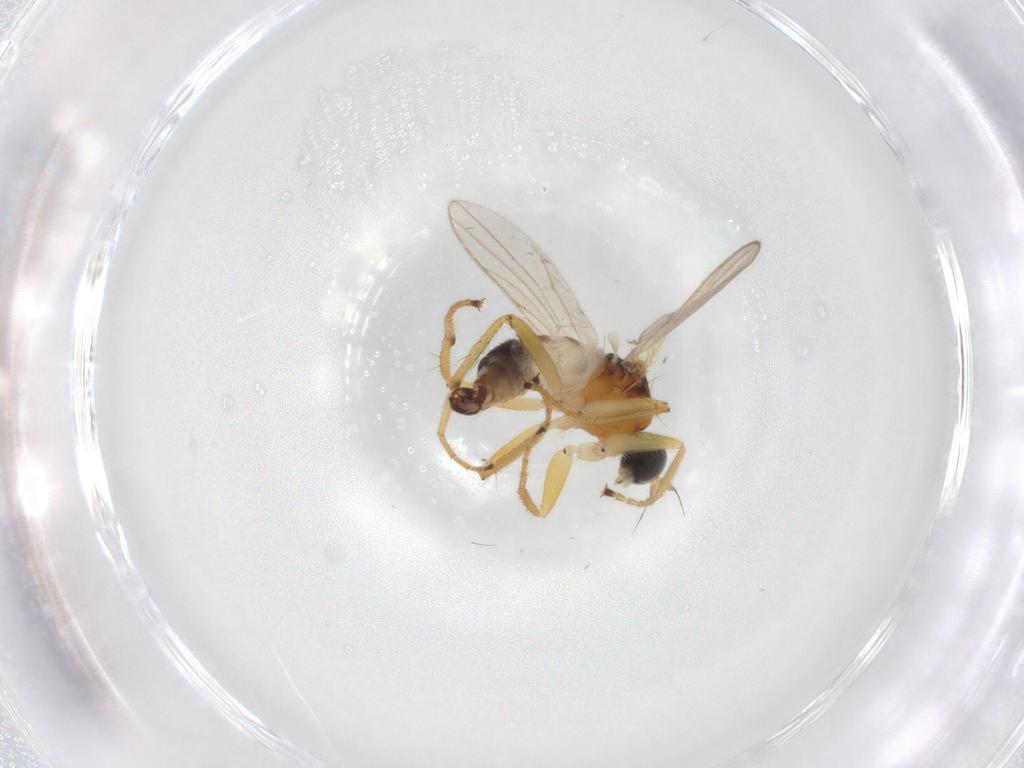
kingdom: Animalia
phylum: Arthropoda
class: Insecta
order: Diptera
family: Hybotidae
